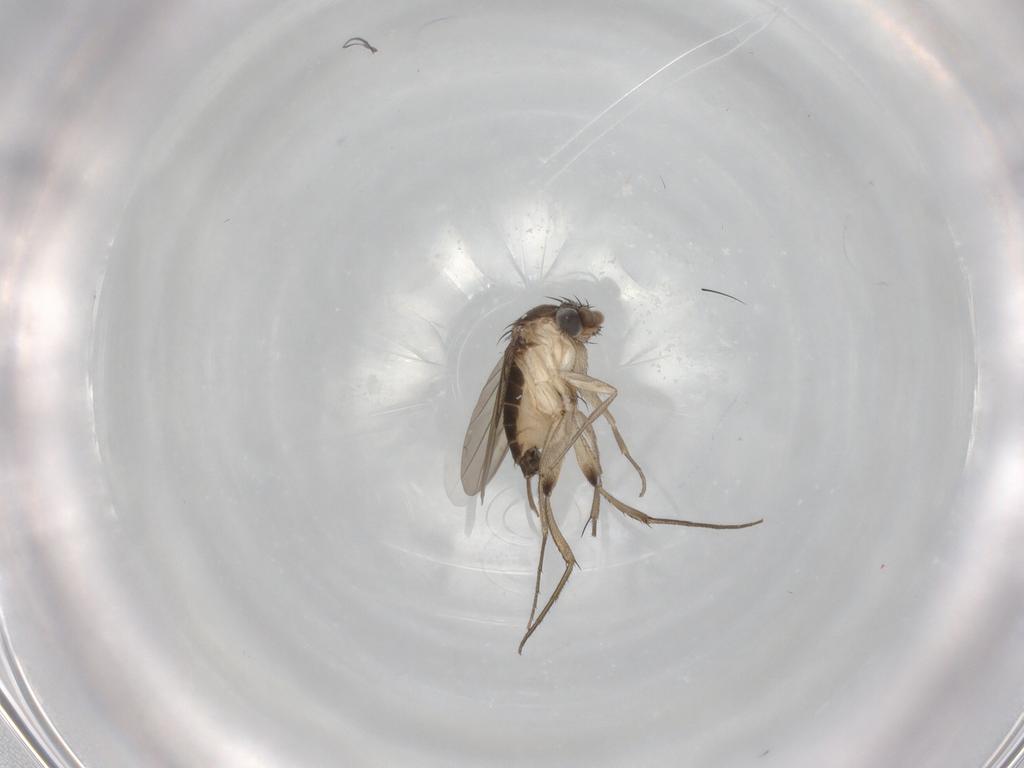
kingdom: Animalia
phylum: Arthropoda
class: Insecta
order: Diptera
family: Phoridae
